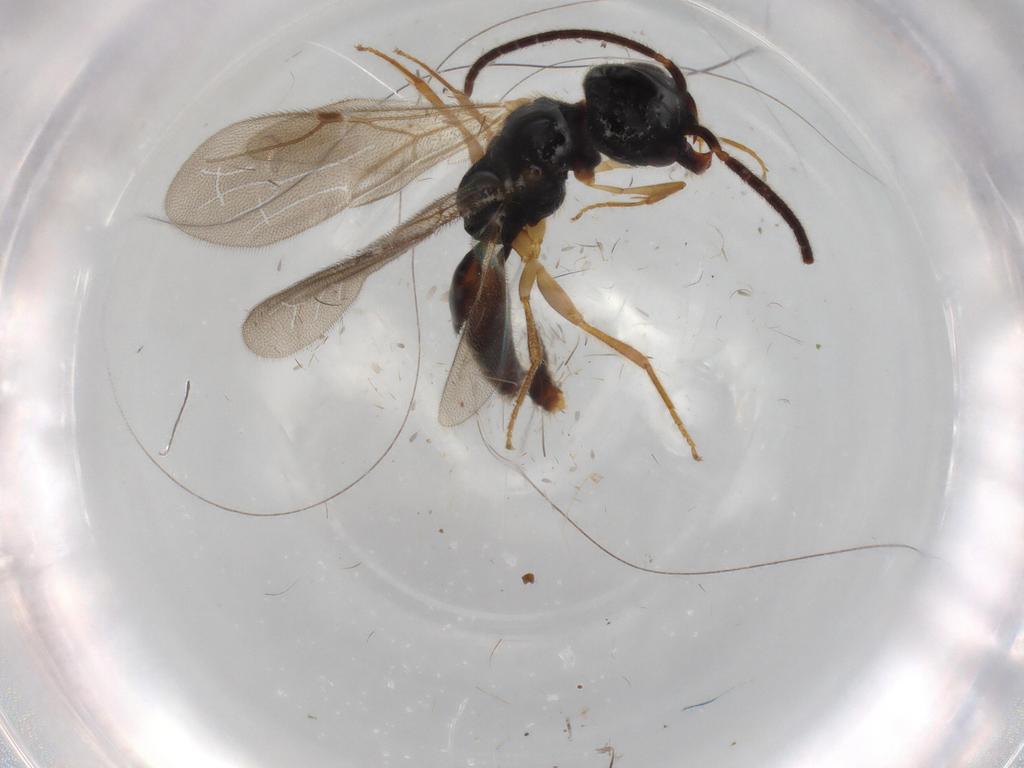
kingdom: Animalia
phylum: Arthropoda
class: Insecta
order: Hymenoptera
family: Bethylidae
